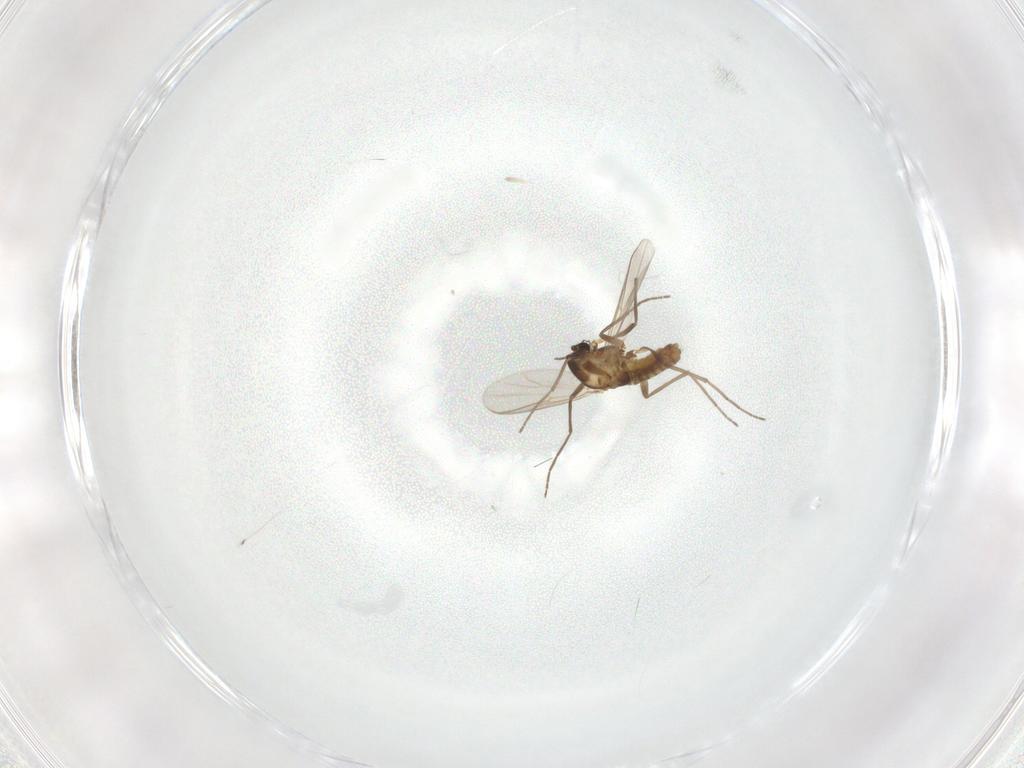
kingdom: Animalia
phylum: Arthropoda
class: Insecta
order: Diptera
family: Chironomidae
